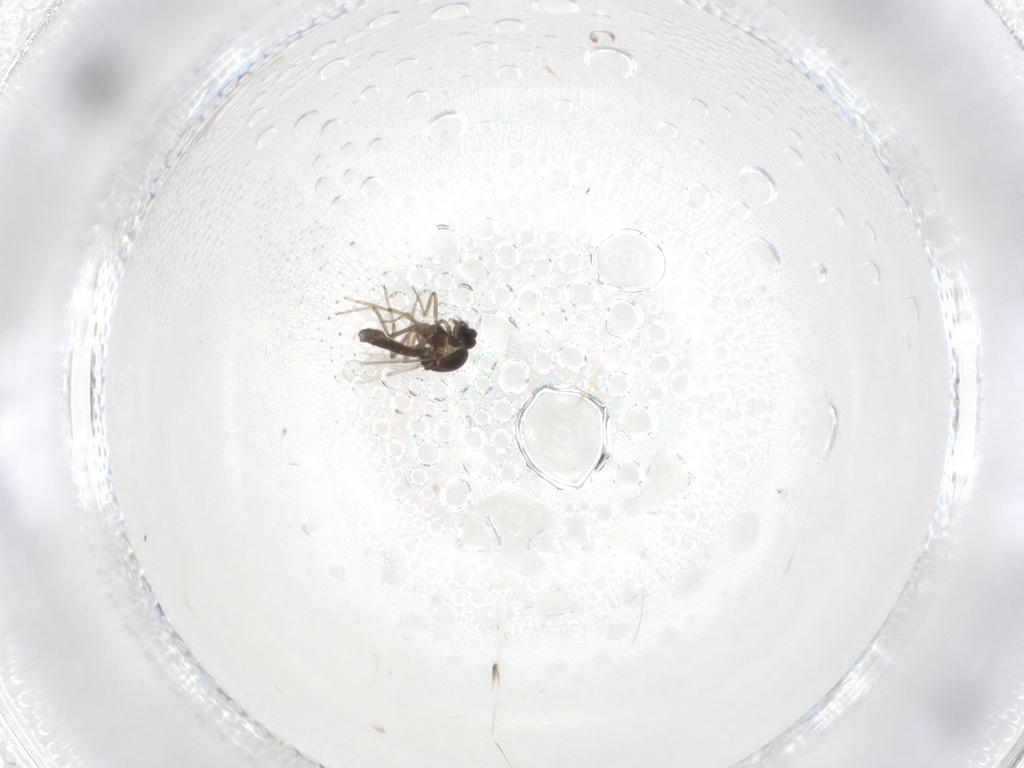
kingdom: Animalia
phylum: Arthropoda
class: Insecta
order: Diptera
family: Ceratopogonidae
